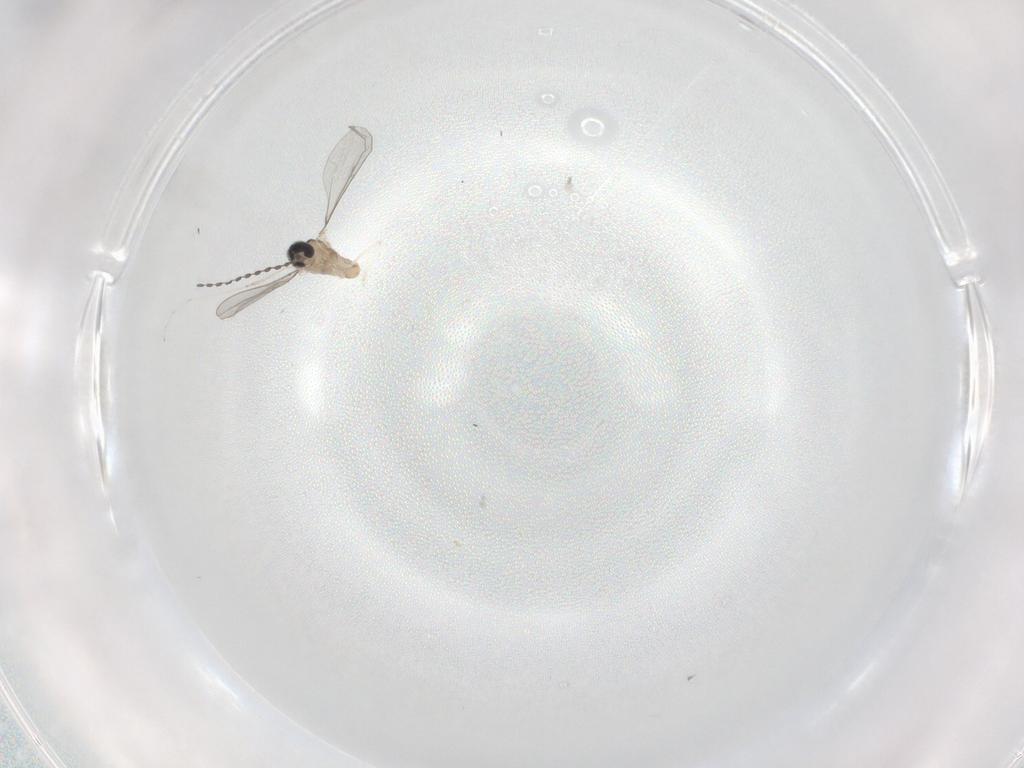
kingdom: Animalia
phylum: Arthropoda
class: Insecta
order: Diptera
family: Cecidomyiidae
